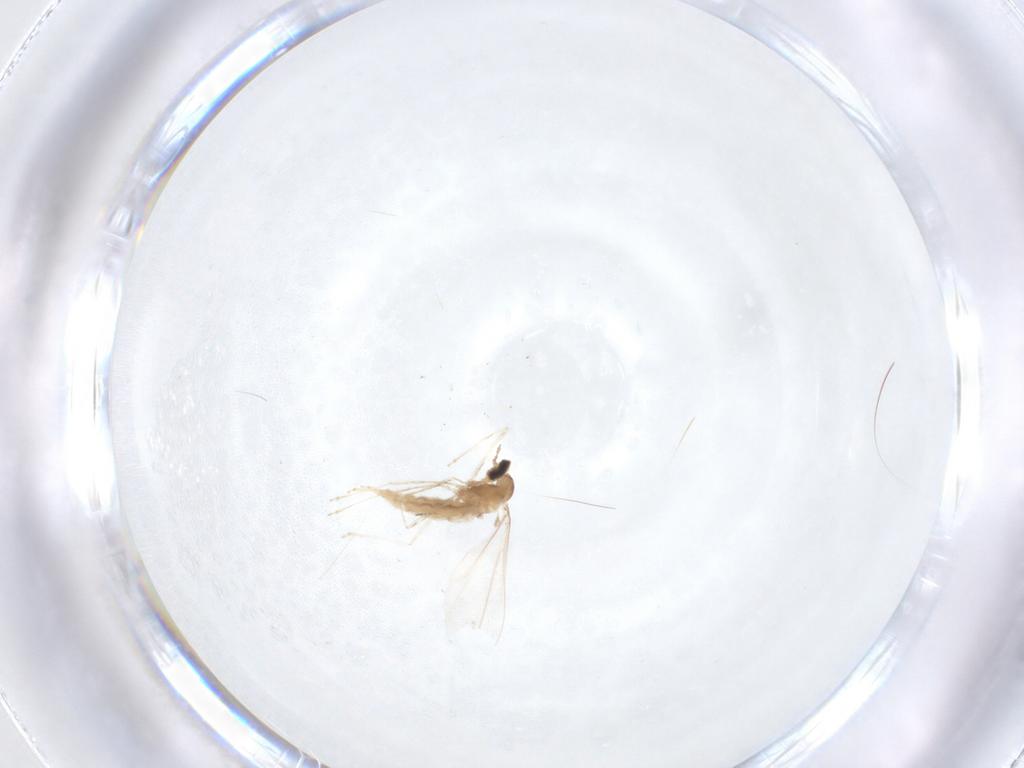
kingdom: Animalia
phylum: Arthropoda
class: Insecta
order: Diptera
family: Cecidomyiidae
